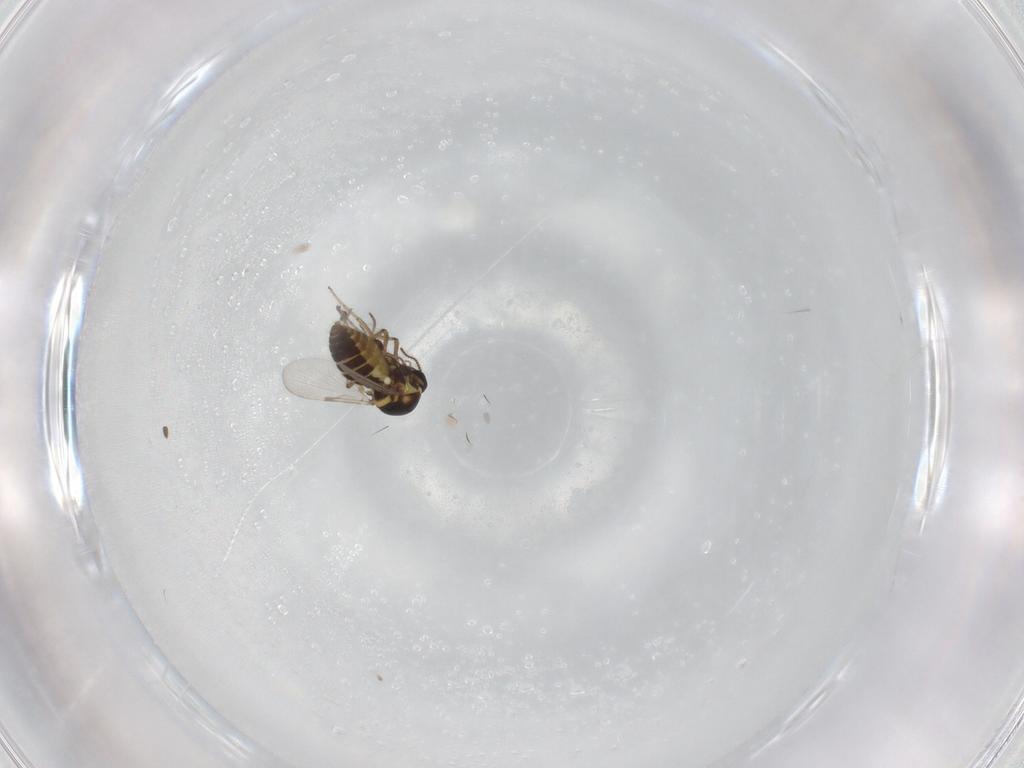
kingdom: Animalia
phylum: Arthropoda
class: Insecta
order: Diptera
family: Ceratopogonidae
